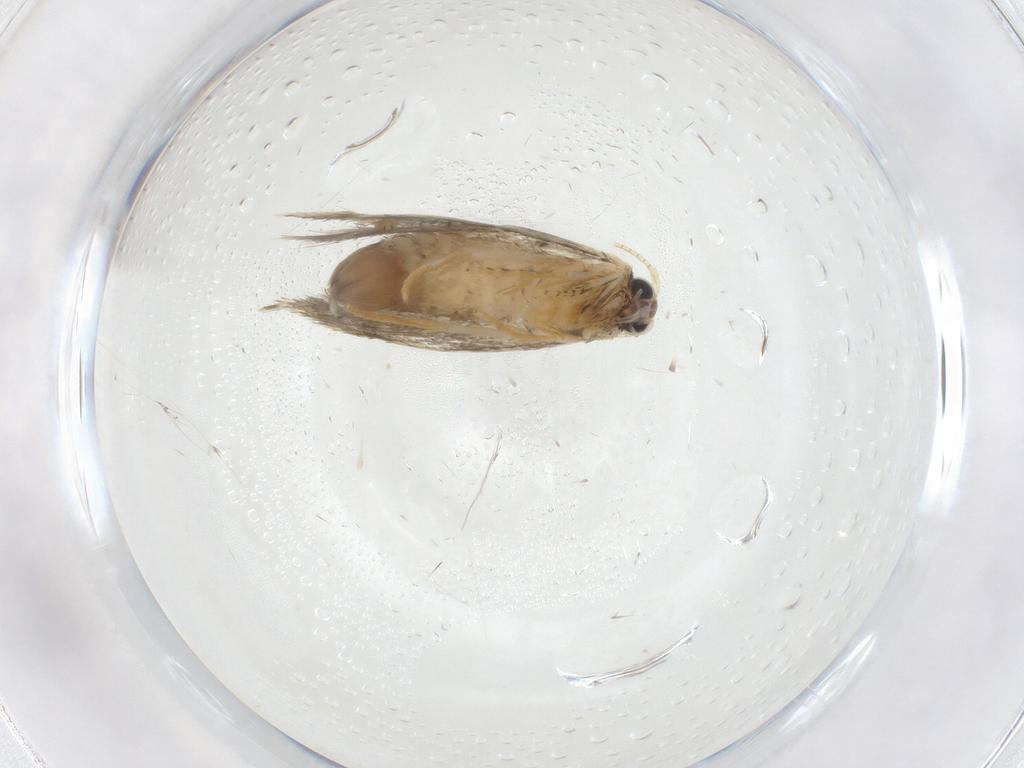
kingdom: Animalia
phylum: Arthropoda
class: Insecta
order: Lepidoptera
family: Tineidae
